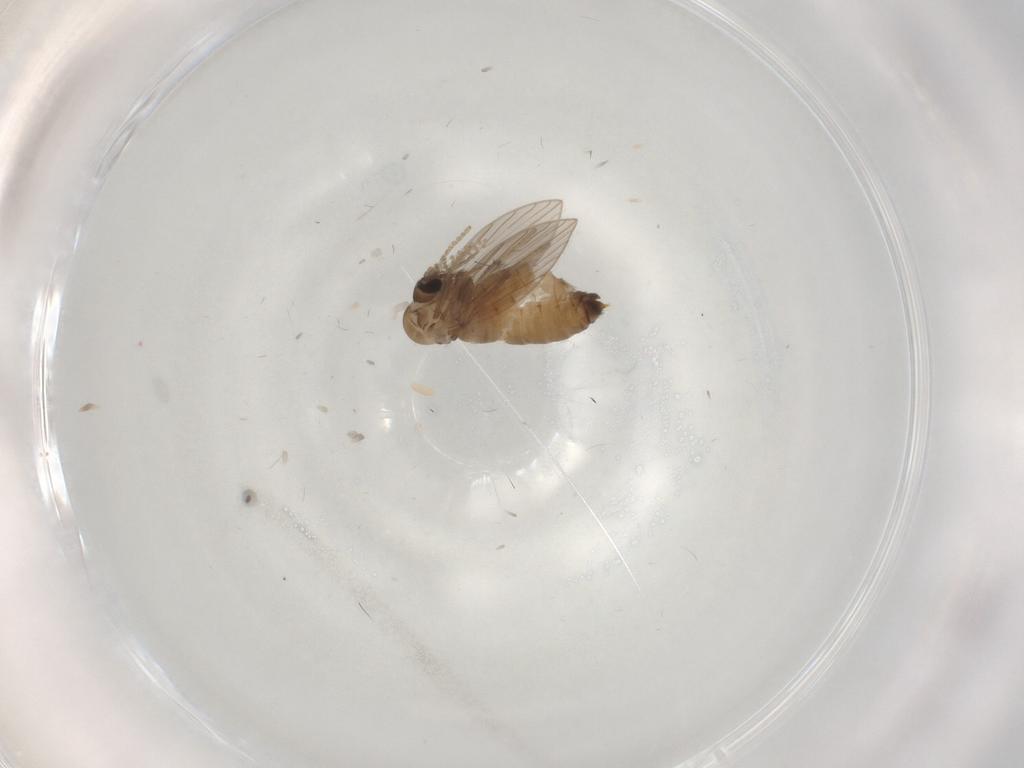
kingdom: Animalia
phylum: Arthropoda
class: Insecta
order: Diptera
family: Psychodidae
